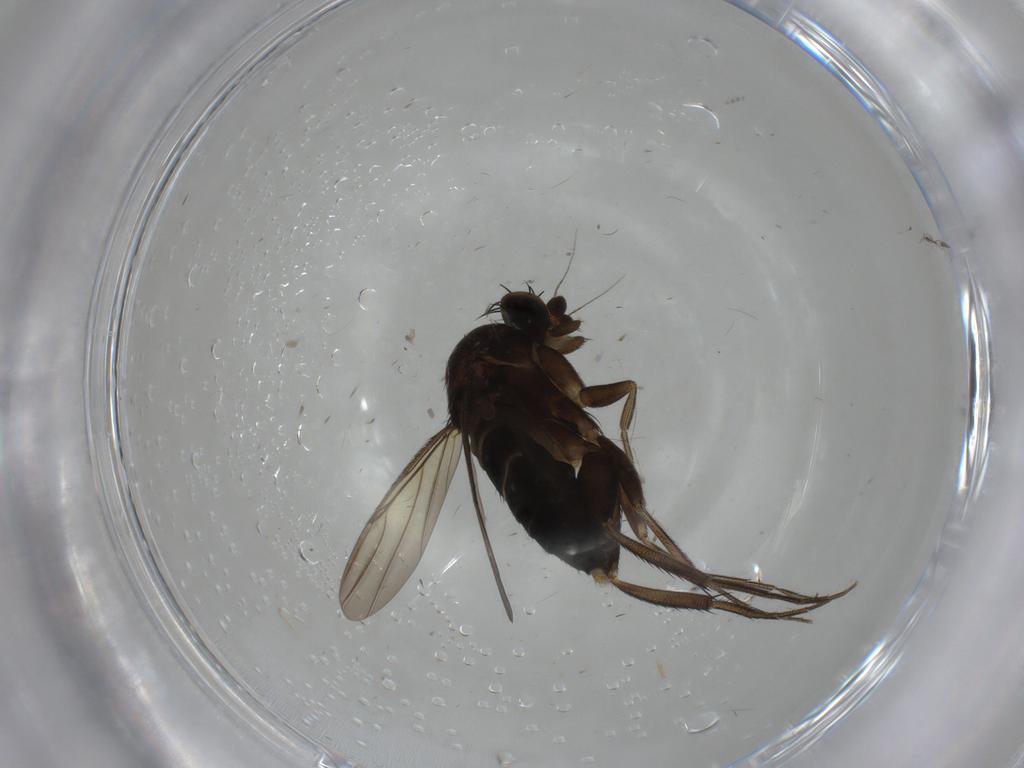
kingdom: Animalia
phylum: Arthropoda
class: Insecta
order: Diptera
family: Phoridae
